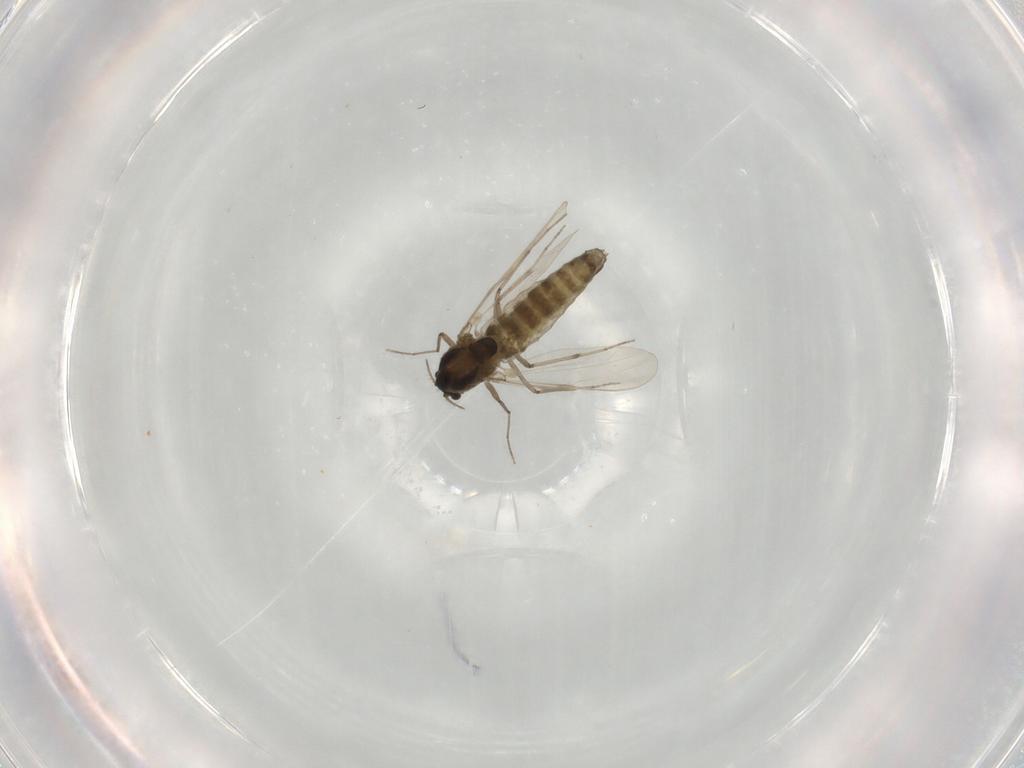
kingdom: Animalia
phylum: Arthropoda
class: Insecta
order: Diptera
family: Chironomidae
